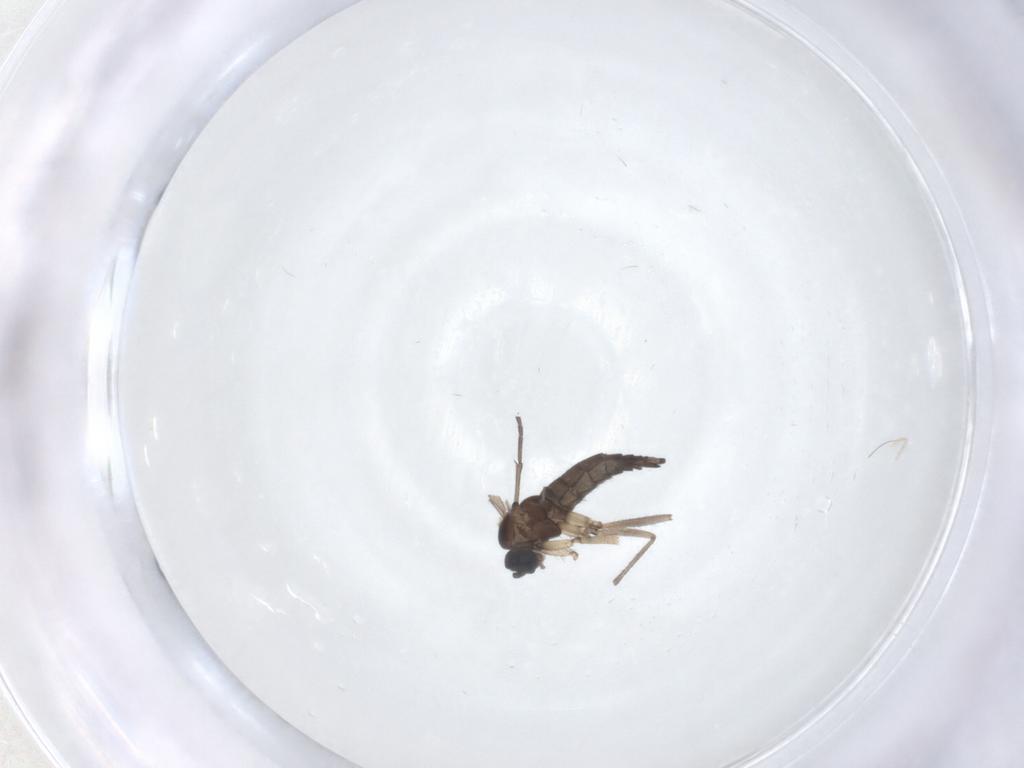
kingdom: Animalia
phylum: Arthropoda
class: Insecta
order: Diptera
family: Sciaridae
